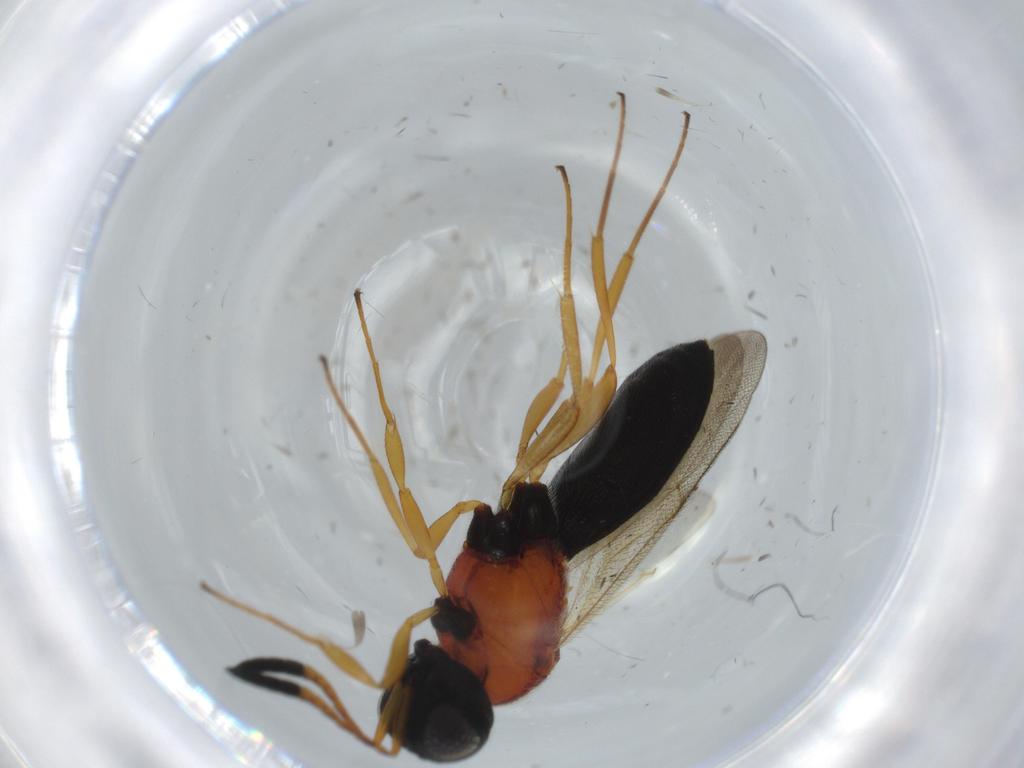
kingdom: Animalia
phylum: Arthropoda
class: Insecta
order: Hymenoptera
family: Scelionidae
